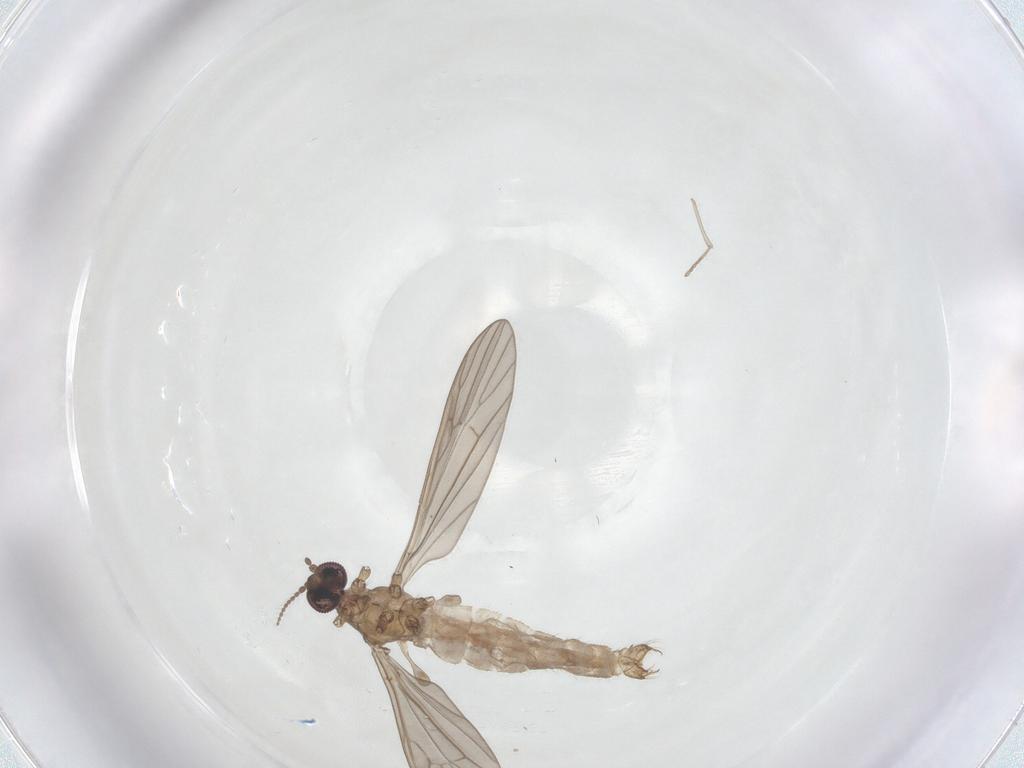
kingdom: Animalia
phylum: Arthropoda
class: Insecta
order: Diptera
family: Limoniidae
